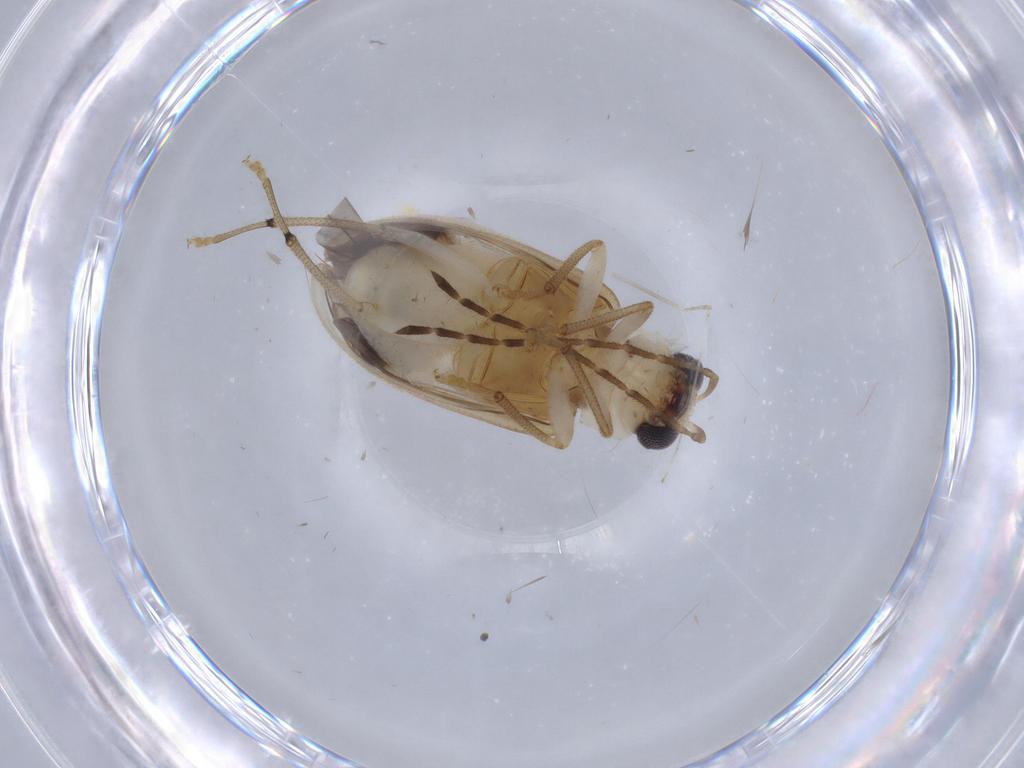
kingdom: Animalia
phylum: Arthropoda
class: Insecta
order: Coleoptera
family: Chrysomelidae
